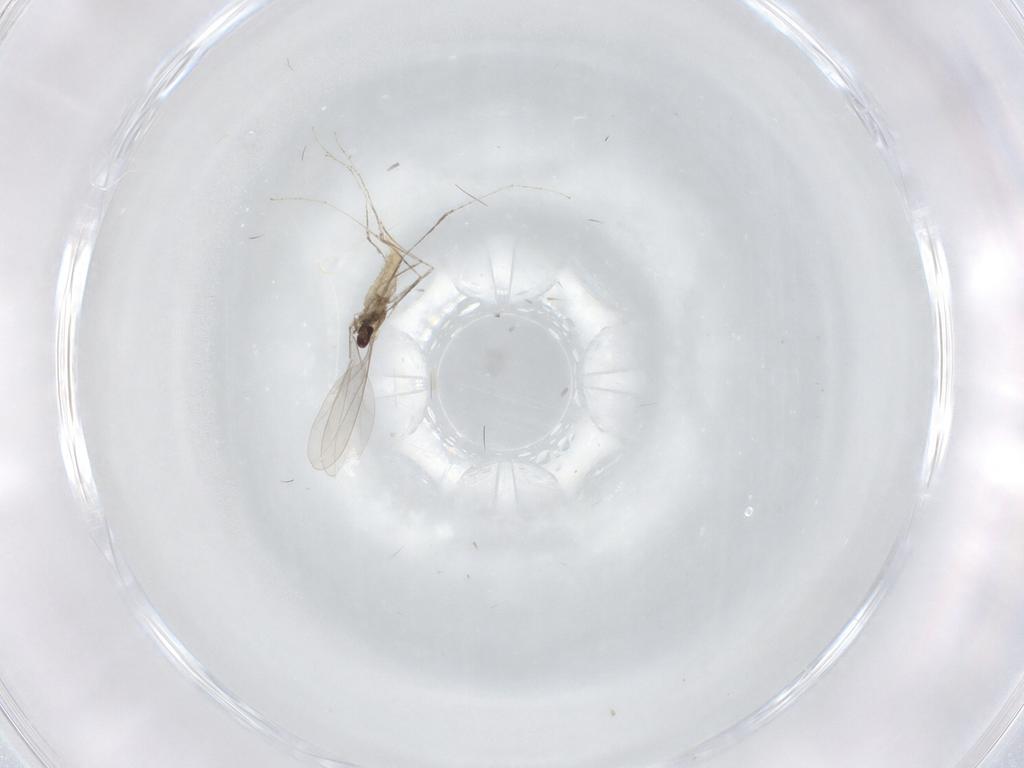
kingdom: Animalia
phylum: Arthropoda
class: Insecta
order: Diptera
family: Cecidomyiidae
